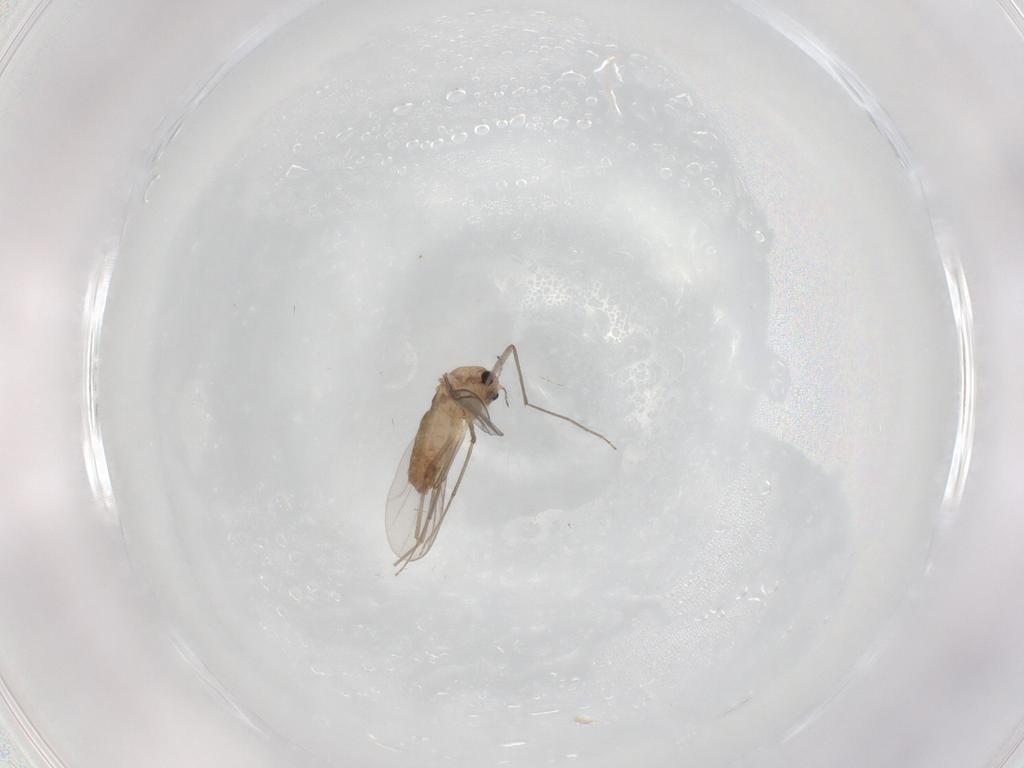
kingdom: Animalia
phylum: Arthropoda
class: Insecta
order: Diptera
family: Chironomidae
